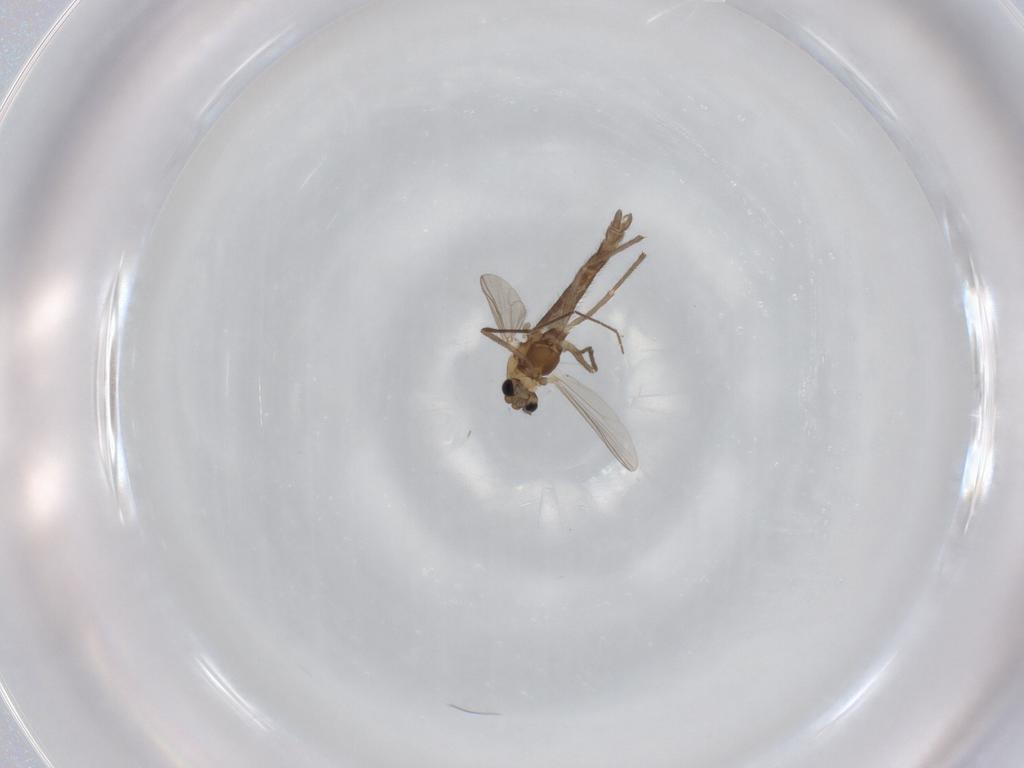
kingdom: Animalia
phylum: Arthropoda
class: Insecta
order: Diptera
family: Chironomidae
